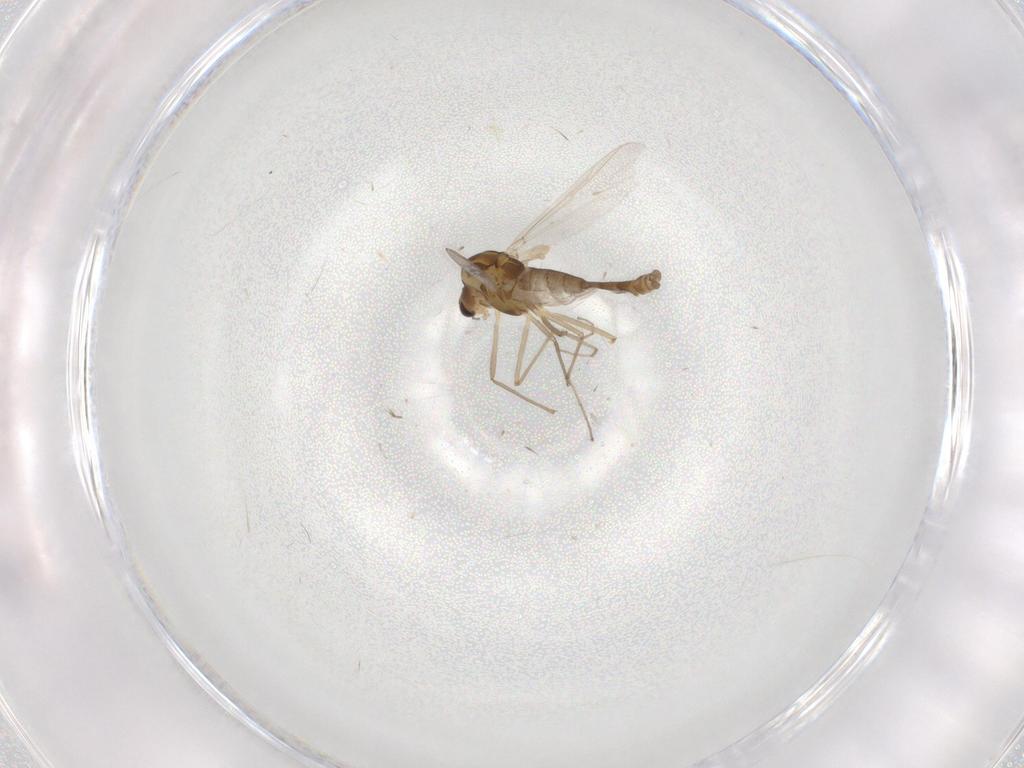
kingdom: Animalia
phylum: Arthropoda
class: Insecta
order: Diptera
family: Chironomidae
